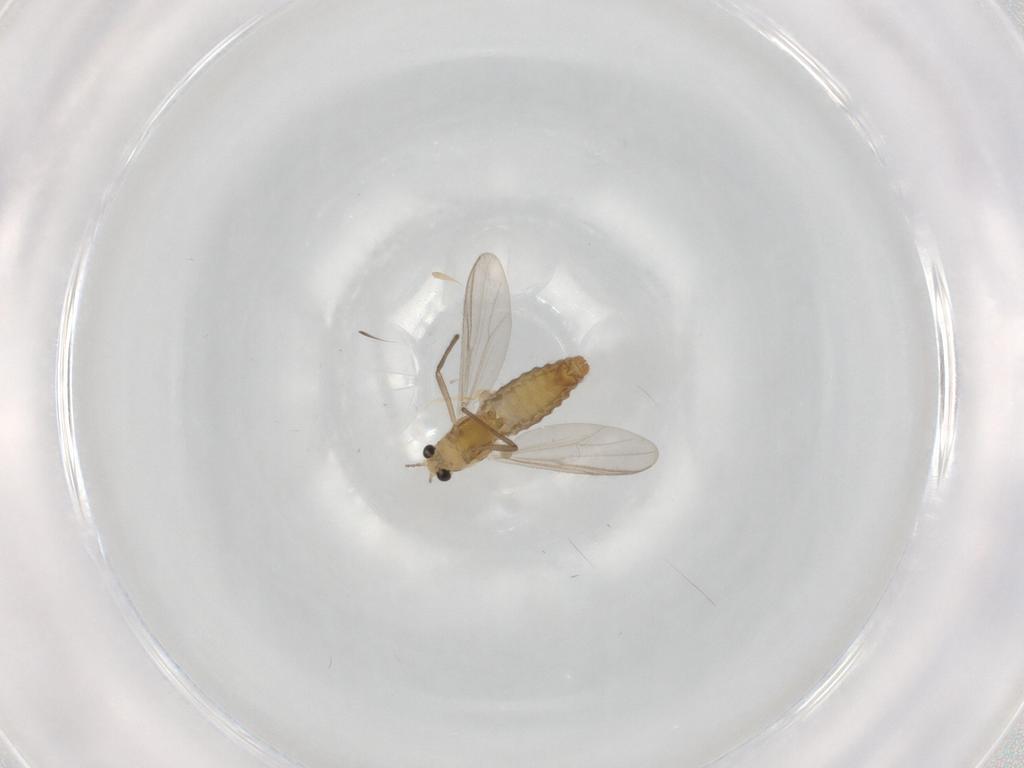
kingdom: Animalia
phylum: Arthropoda
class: Insecta
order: Diptera
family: Chironomidae
